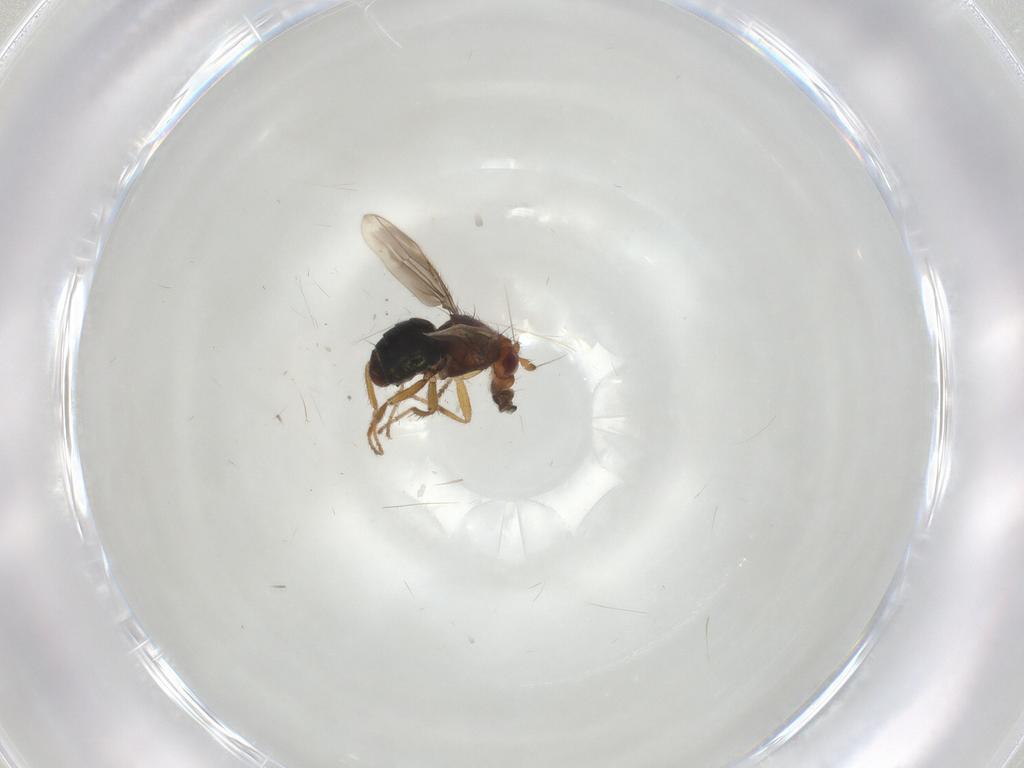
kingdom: Animalia
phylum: Arthropoda
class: Insecta
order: Diptera
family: Sphaeroceridae
